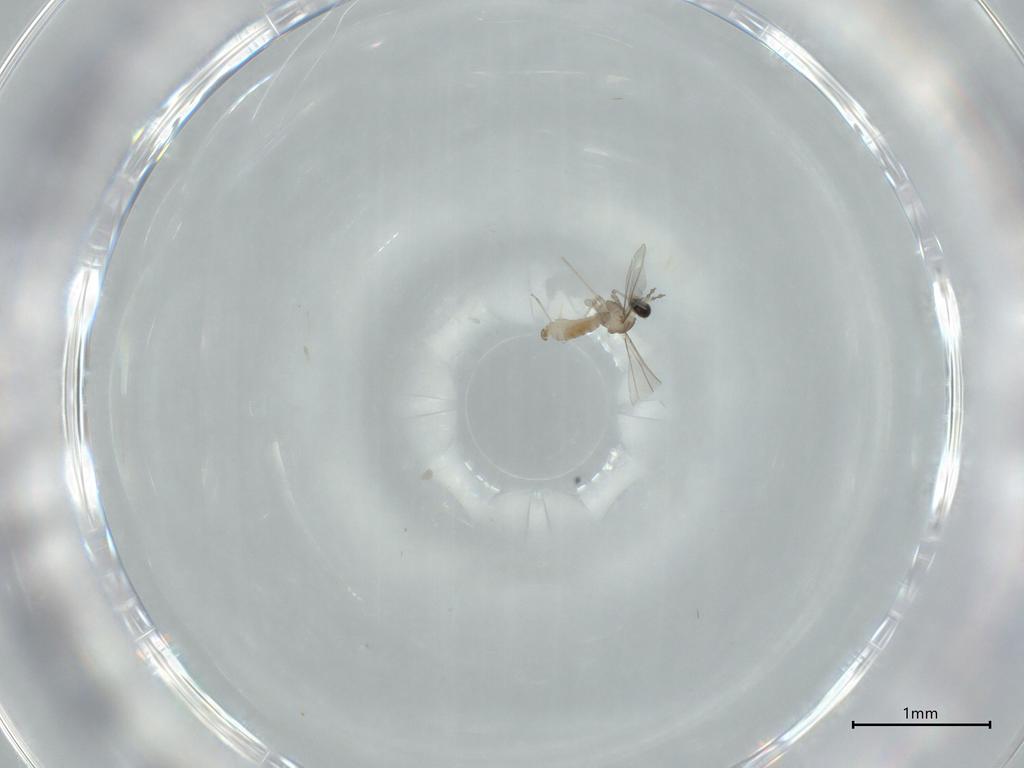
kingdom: Animalia
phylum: Arthropoda
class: Insecta
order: Diptera
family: Cecidomyiidae
